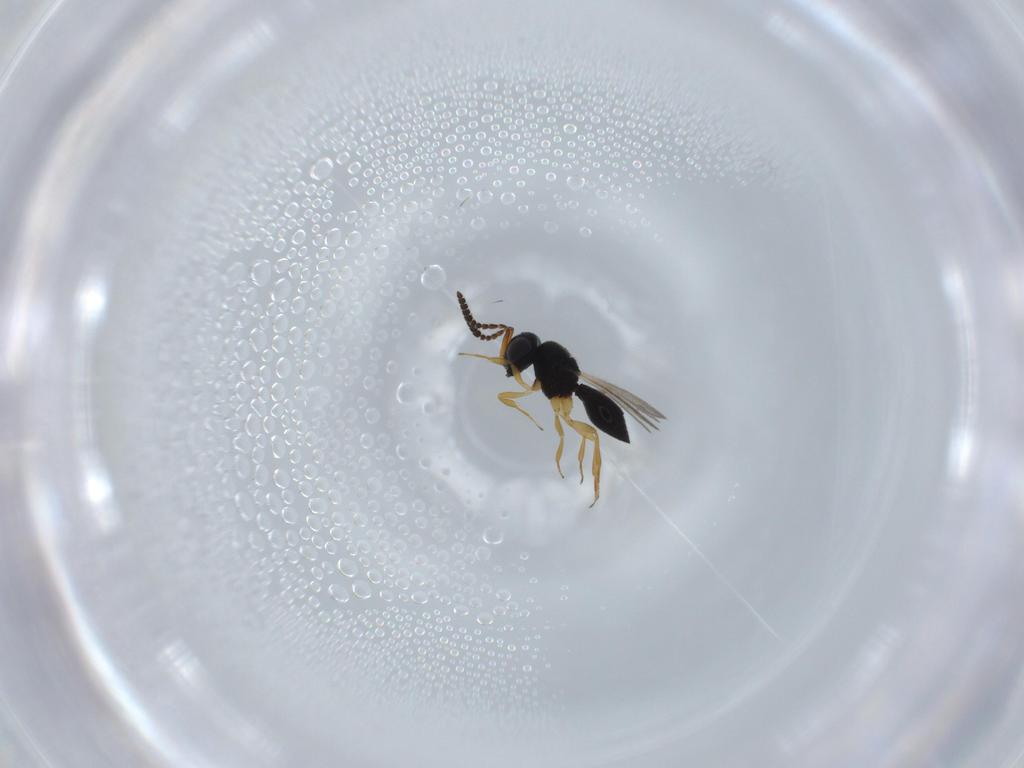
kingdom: Animalia
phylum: Arthropoda
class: Insecta
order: Hymenoptera
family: Scelionidae
